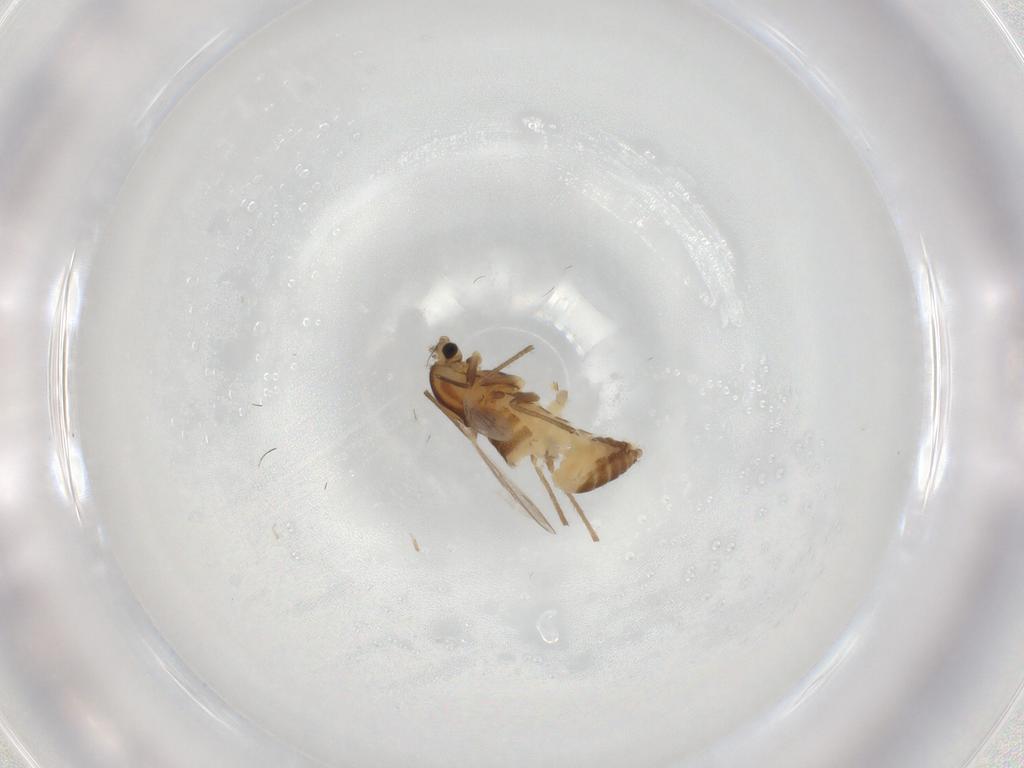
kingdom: Animalia
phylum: Arthropoda
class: Insecta
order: Diptera
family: Chironomidae
